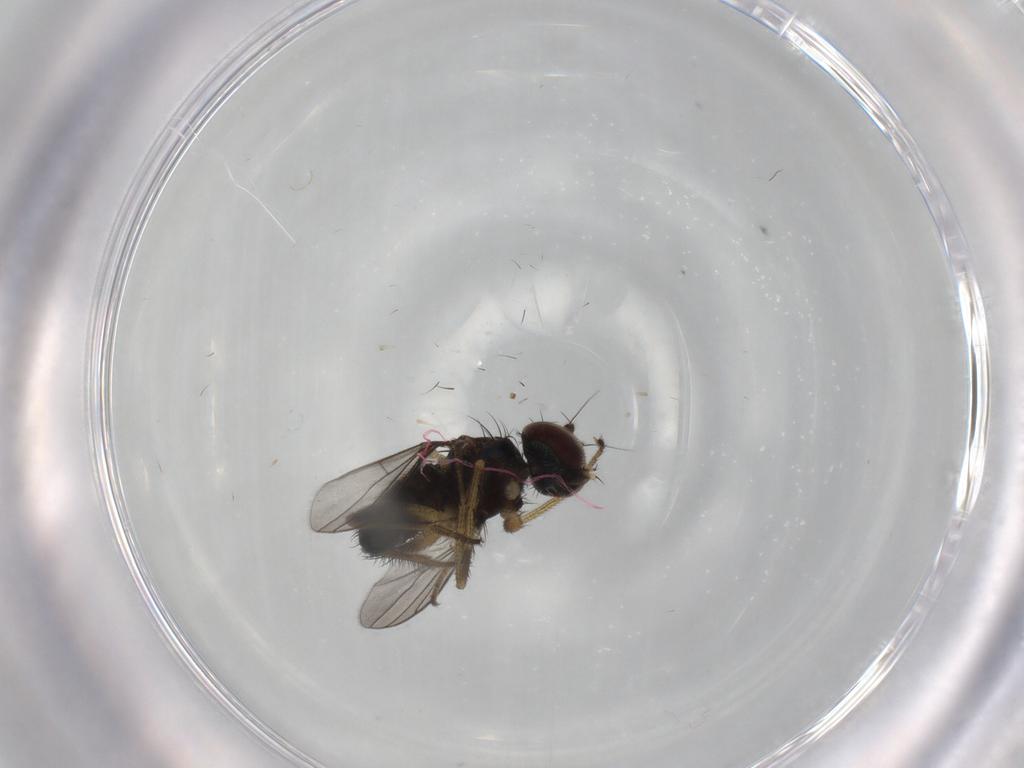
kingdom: Animalia
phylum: Arthropoda
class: Insecta
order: Diptera
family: Dolichopodidae
